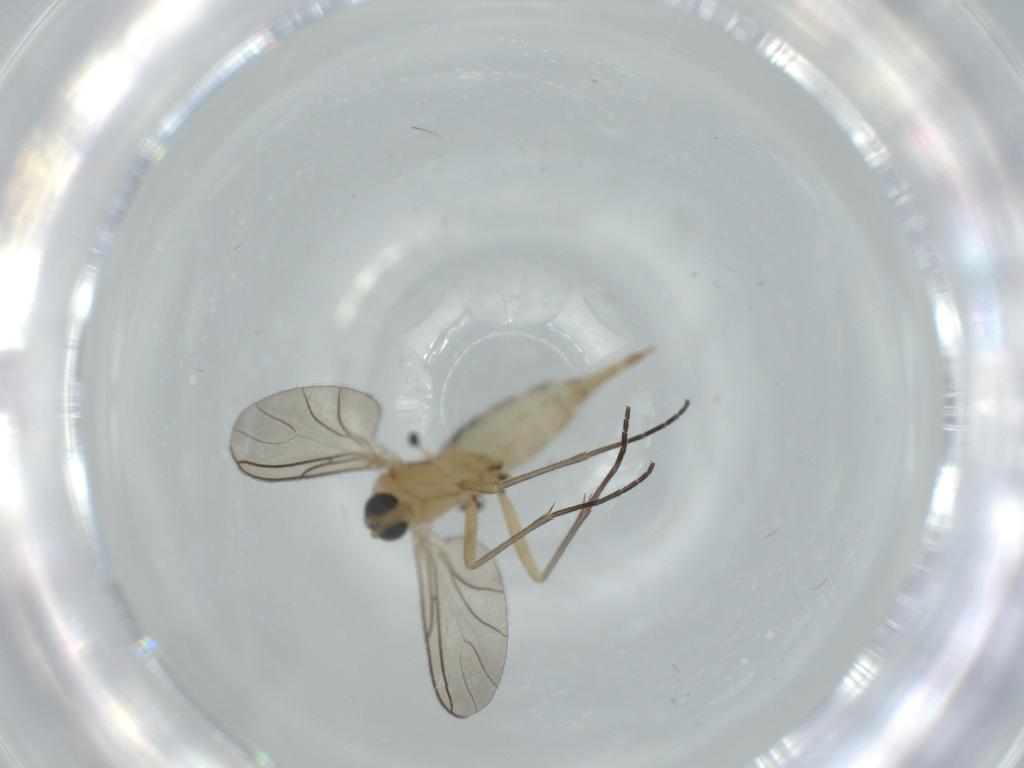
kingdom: Animalia
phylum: Arthropoda
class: Insecta
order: Diptera
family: Sciaridae
